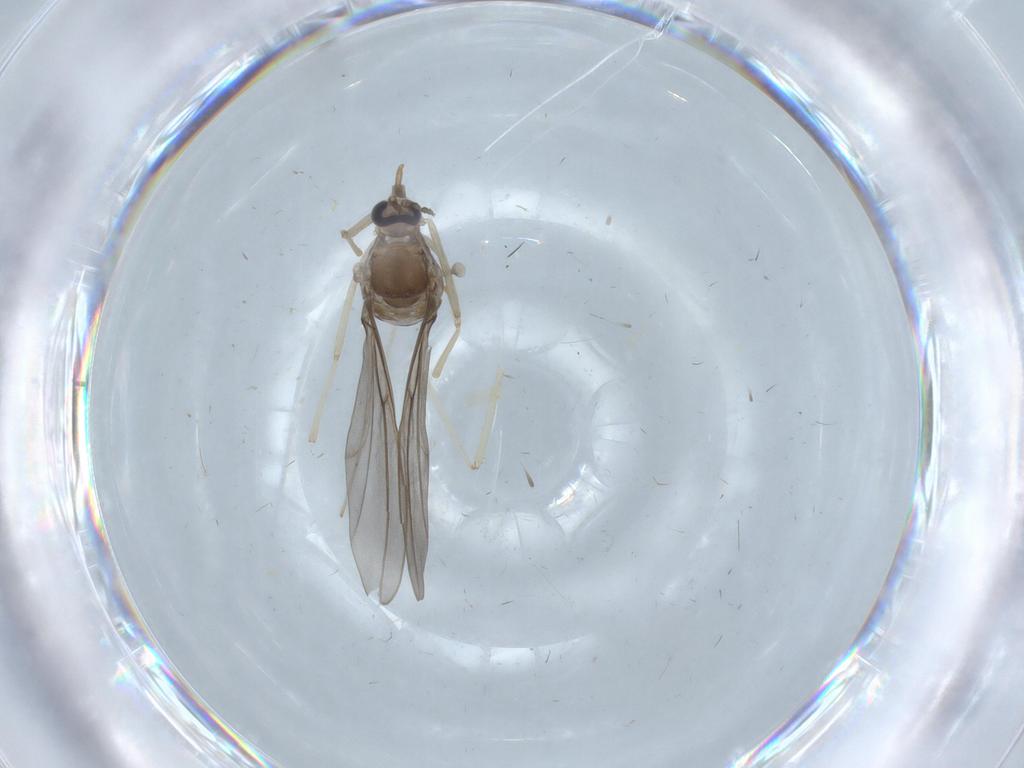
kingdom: Animalia
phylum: Arthropoda
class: Insecta
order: Diptera
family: Cecidomyiidae
